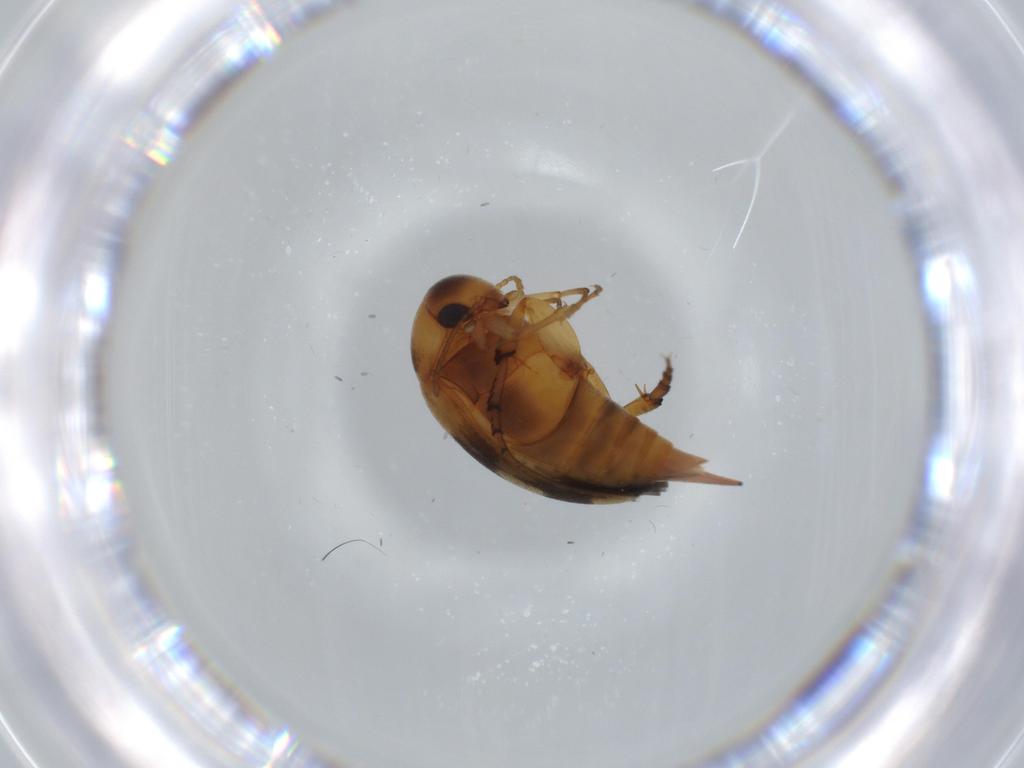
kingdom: Animalia
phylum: Arthropoda
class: Insecta
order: Coleoptera
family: Mordellidae
